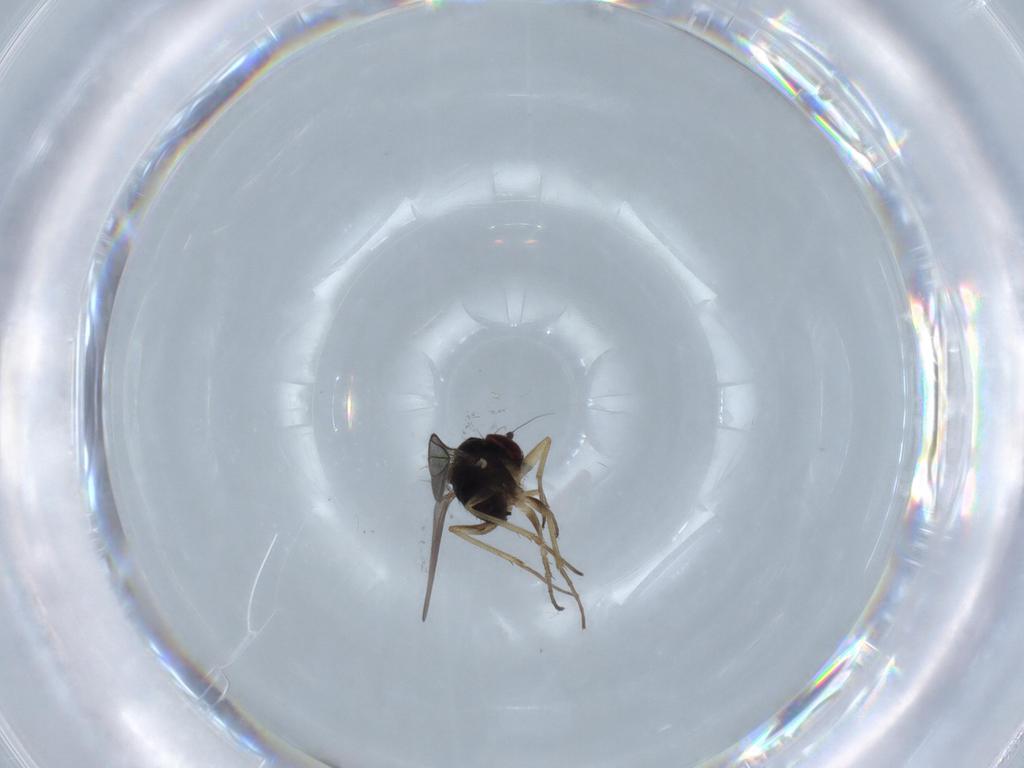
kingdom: Animalia
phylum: Arthropoda
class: Insecta
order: Diptera
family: Dolichopodidae
